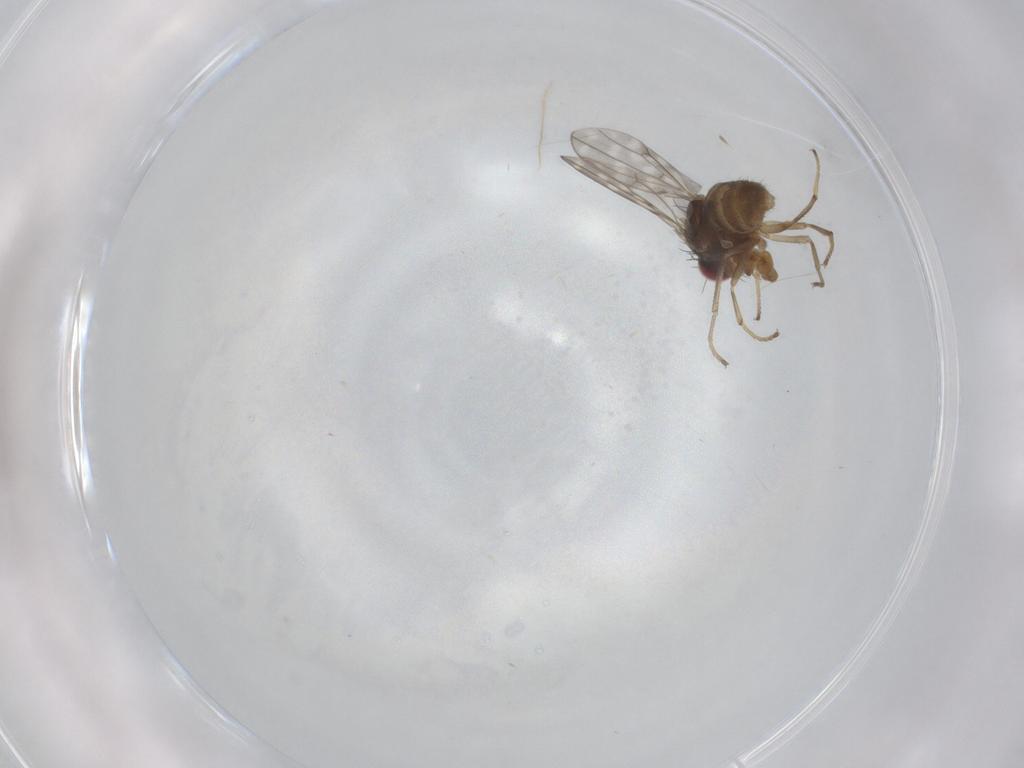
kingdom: Animalia
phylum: Arthropoda
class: Insecta
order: Diptera
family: Ephydridae
